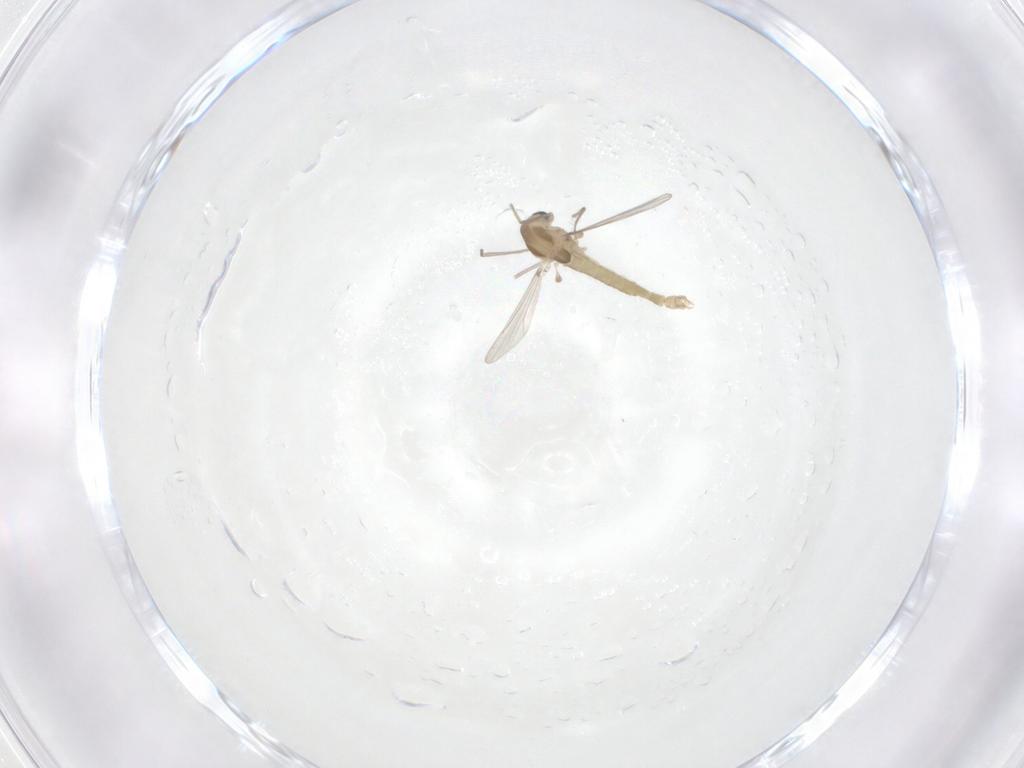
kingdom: Animalia
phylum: Arthropoda
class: Insecta
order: Diptera
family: Chironomidae
